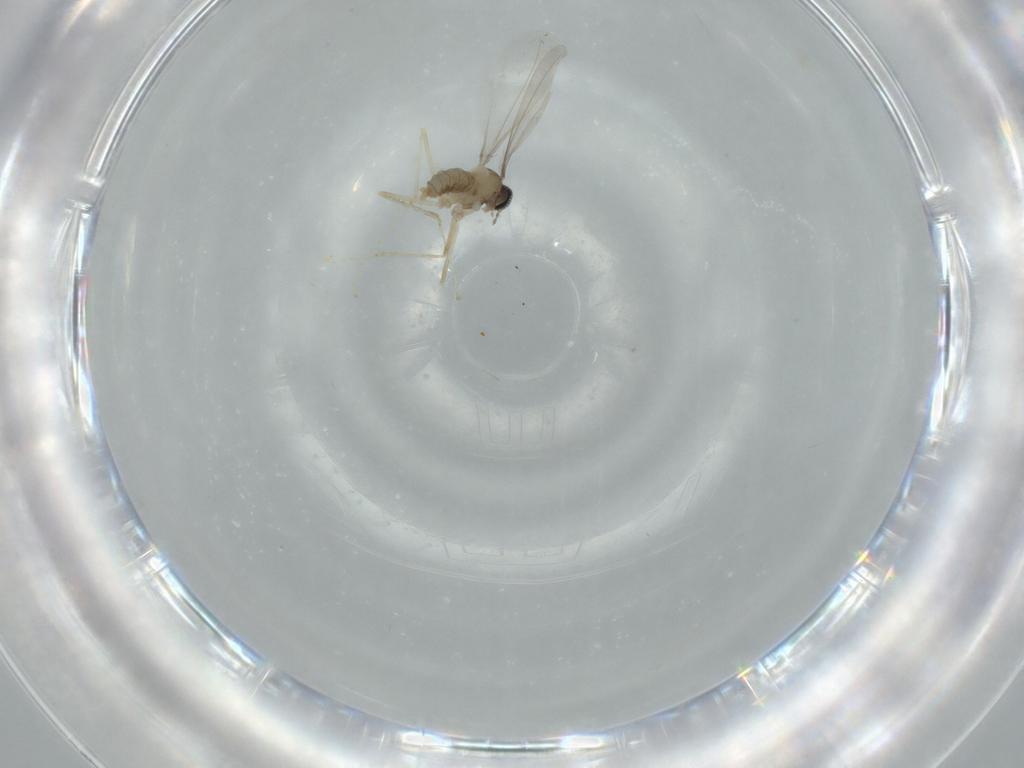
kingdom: Animalia
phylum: Arthropoda
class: Insecta
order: Diptera
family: Cecidomyiidae
